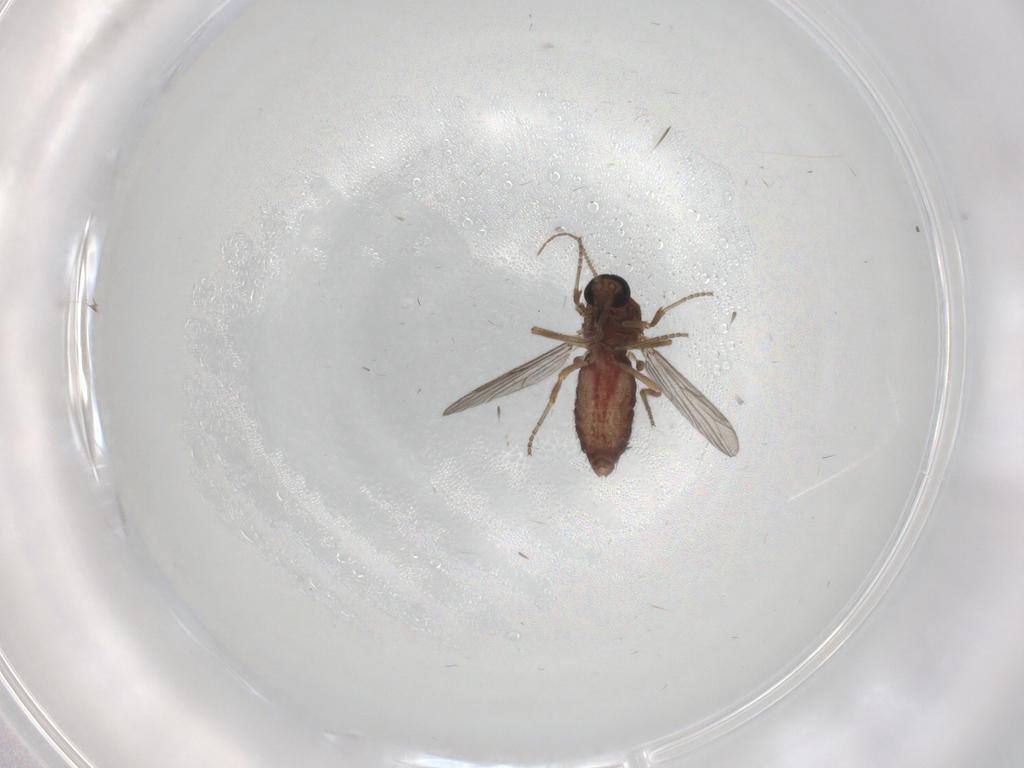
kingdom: Animalia
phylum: Arthropoda
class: Insecta
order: Diptera
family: Ceratopogonidae
